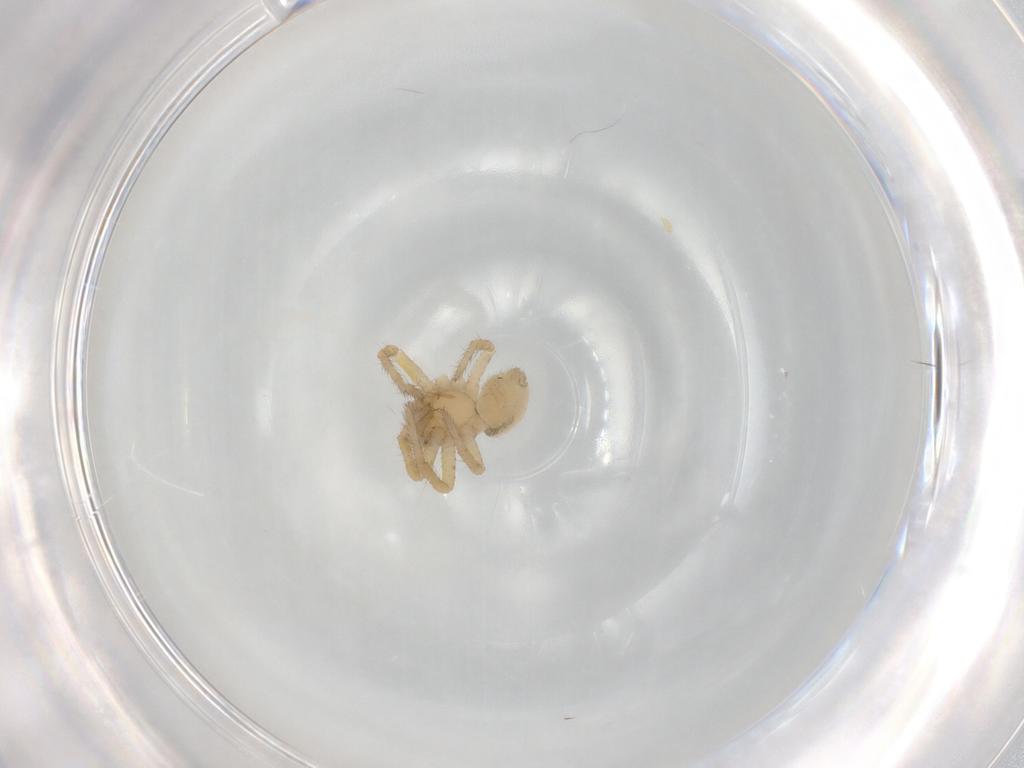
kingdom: Animalia
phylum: Arthropoda
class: Arachnida
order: Araneae
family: Thomisidae
